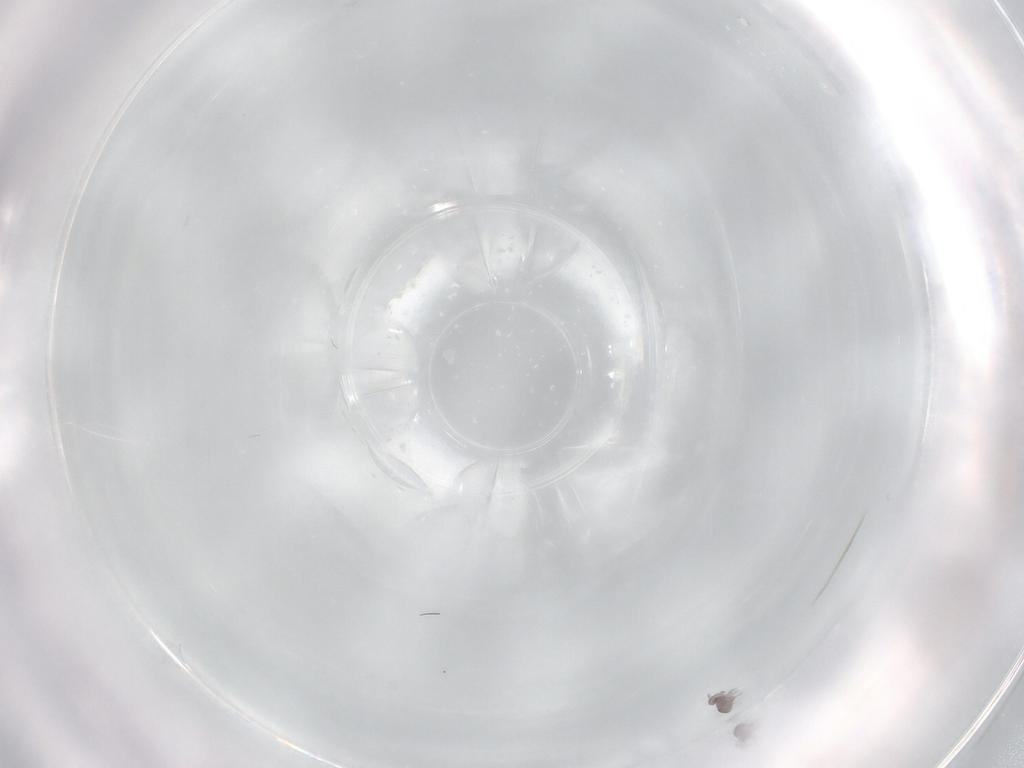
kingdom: Animalia
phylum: Arthropoda
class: Collembola
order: Poduromorpha
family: Hypogastruridae
